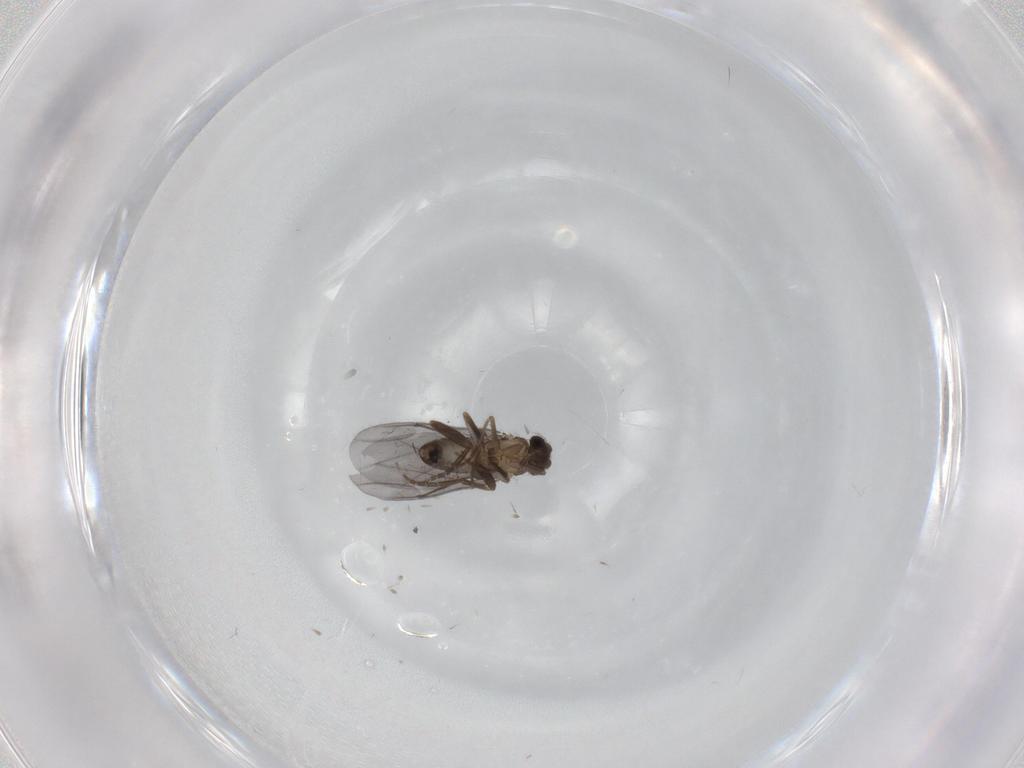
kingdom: Animalia
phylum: Arthropoda
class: Insecta
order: Diptera
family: Phoridae
